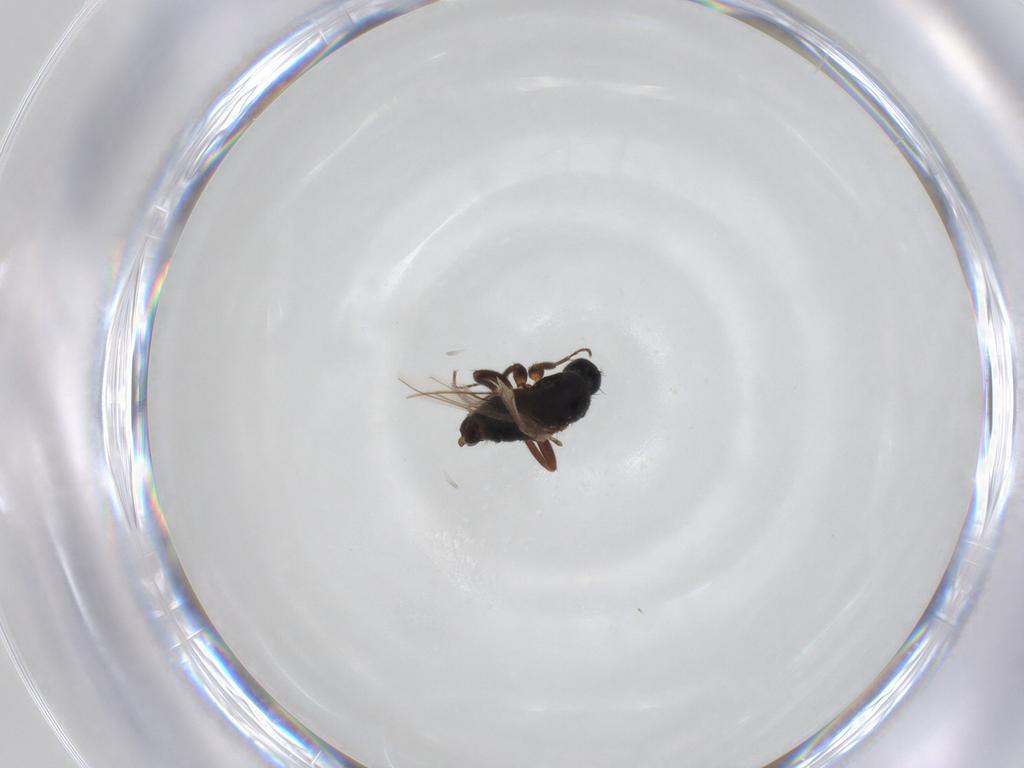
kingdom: Animalia
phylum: Arthropoda
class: Insecta
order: Diptera
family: Hybotidae
